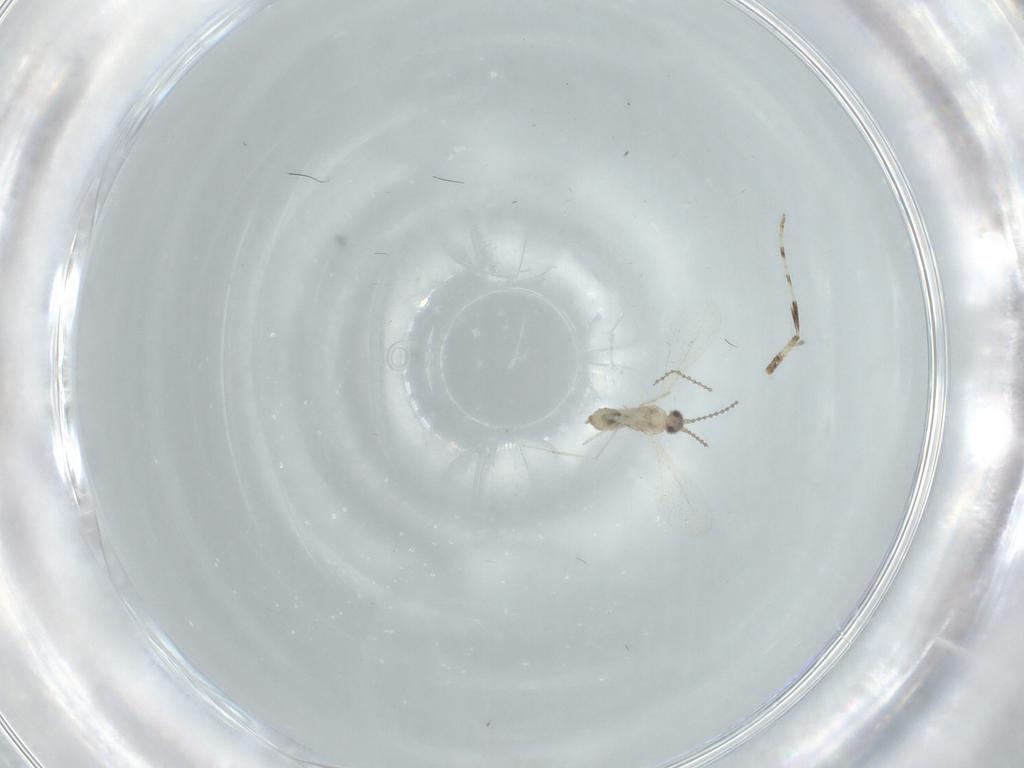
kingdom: Animalia
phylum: Arthropoda
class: Insecta
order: Diptera
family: Cecidomyiidae
